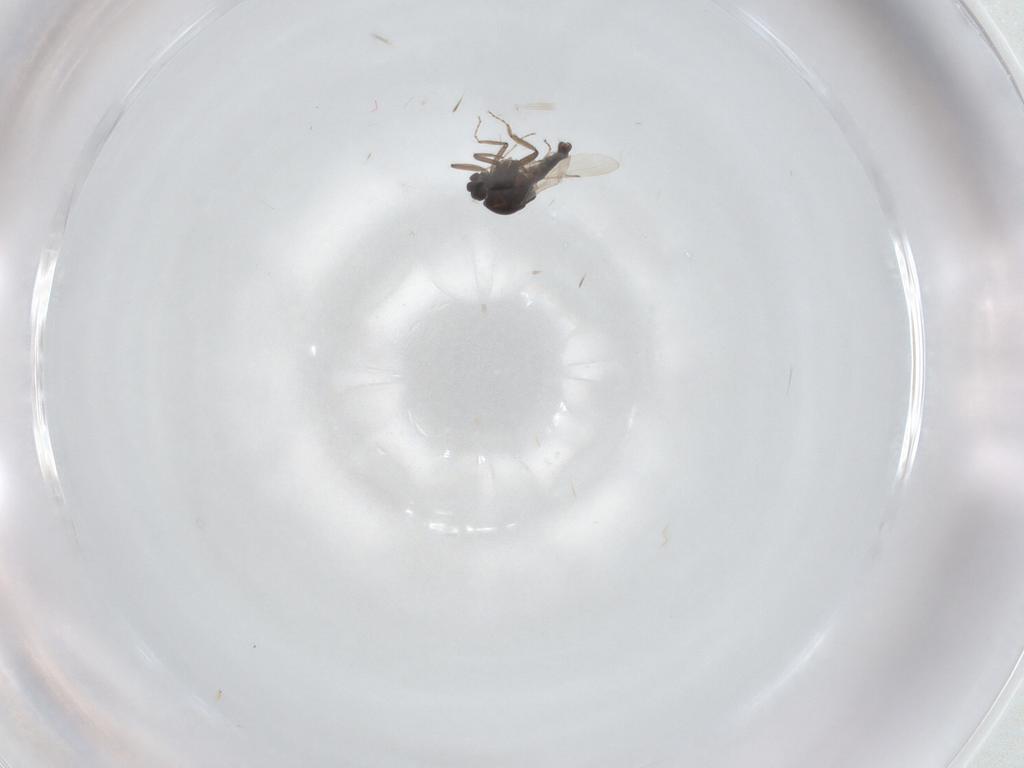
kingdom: Animalia
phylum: Arthropoda
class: Insecta
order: Diptera
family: Ceratopogonidae
